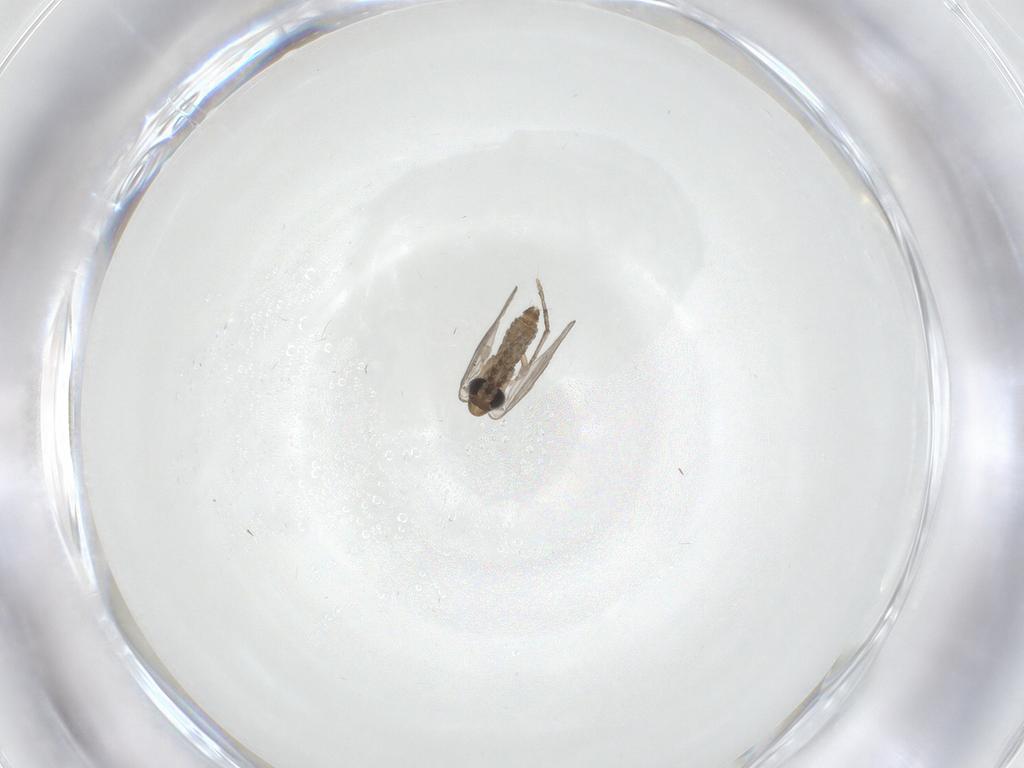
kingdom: Animalia
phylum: Arthropoda
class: Insecta
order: Diptera
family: Psychodidae
